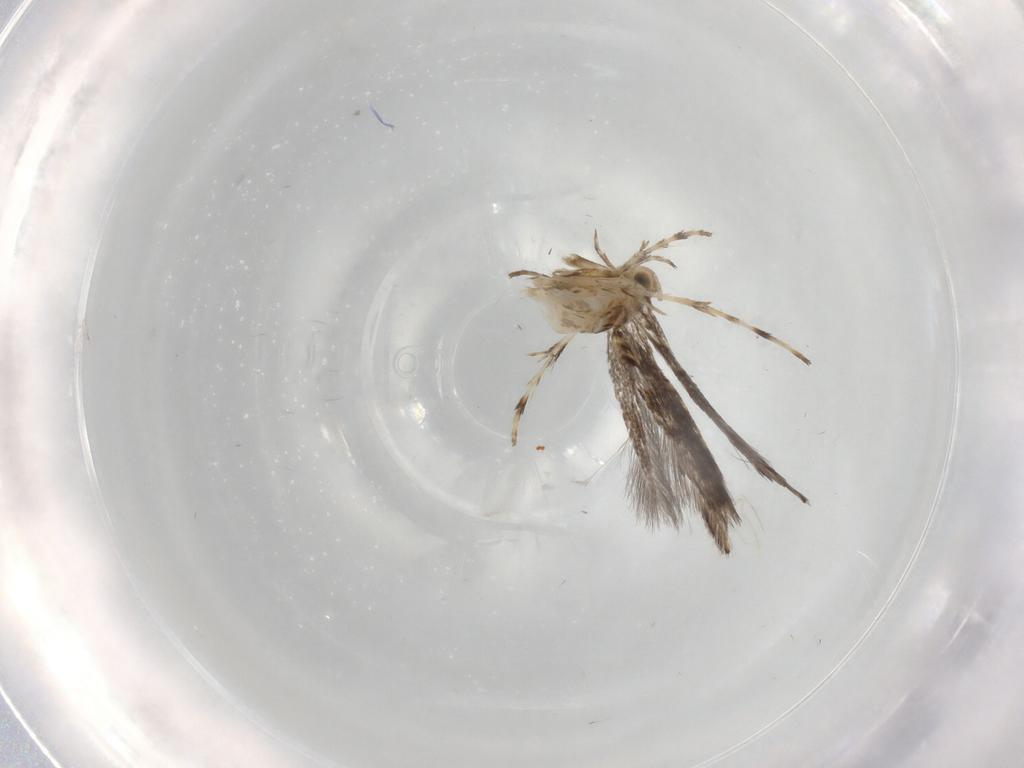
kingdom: Animalia
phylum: Arthropoda
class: Insecta
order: Lepidoptera
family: Gracillariidae
